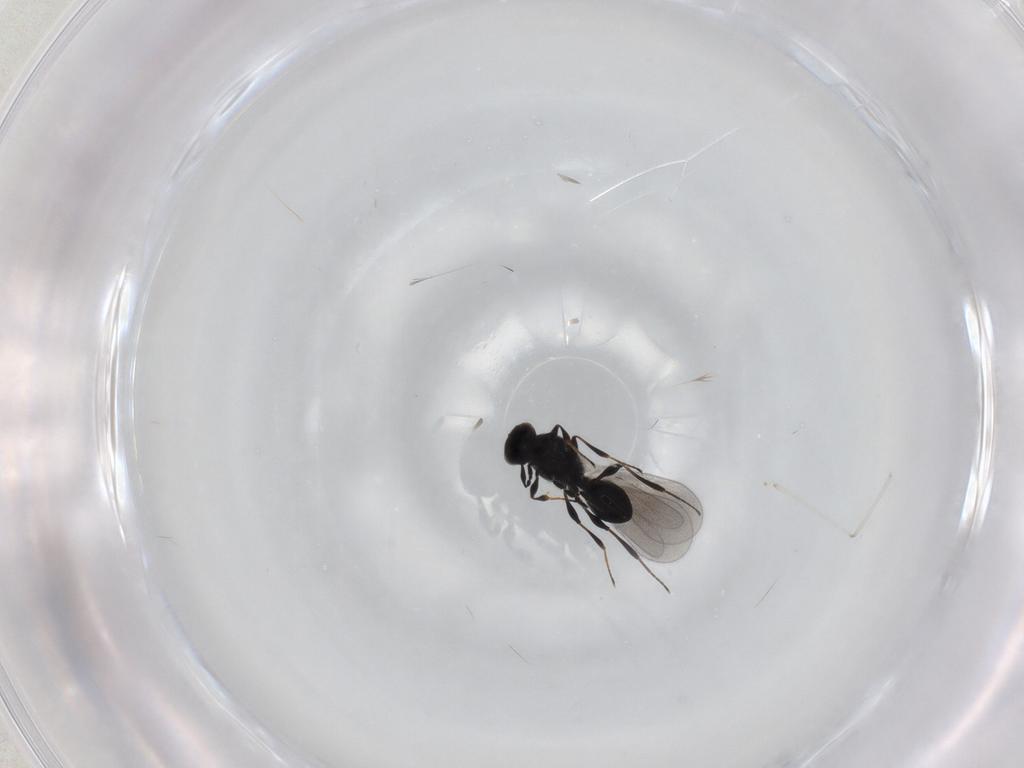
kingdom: Animalia
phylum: Arthropoda
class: Insecta
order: Hymenoptera
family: Platygastridae
